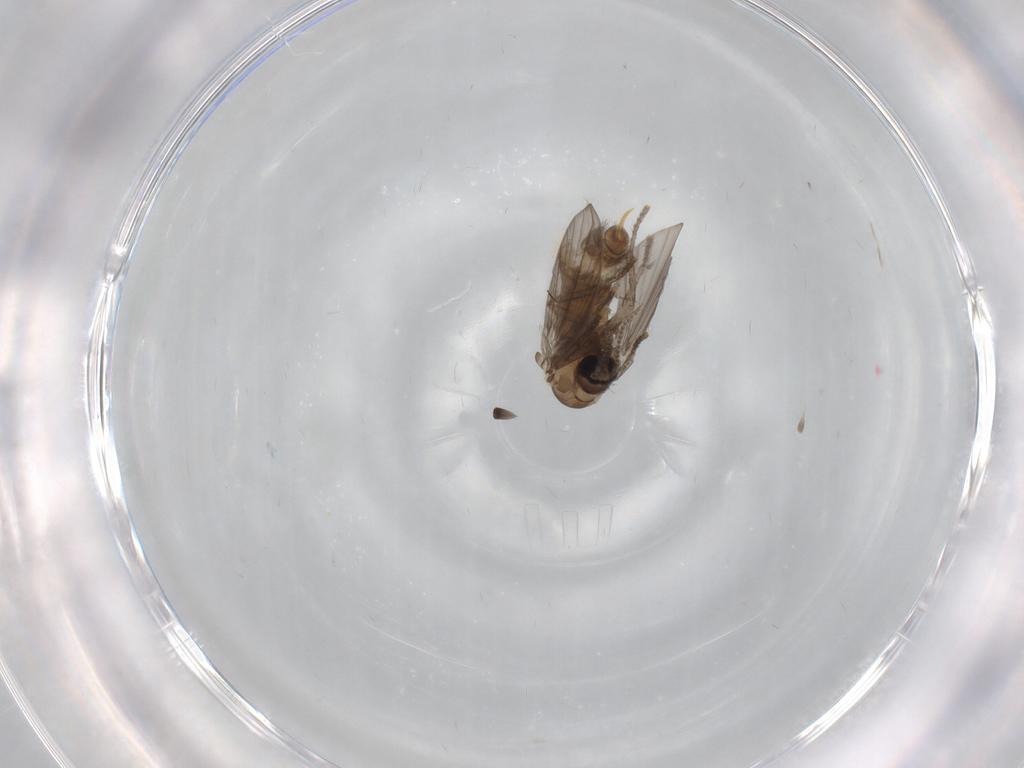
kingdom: Animalia
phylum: Arthropoda
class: Insecta
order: Diptera
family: Psychodidae
